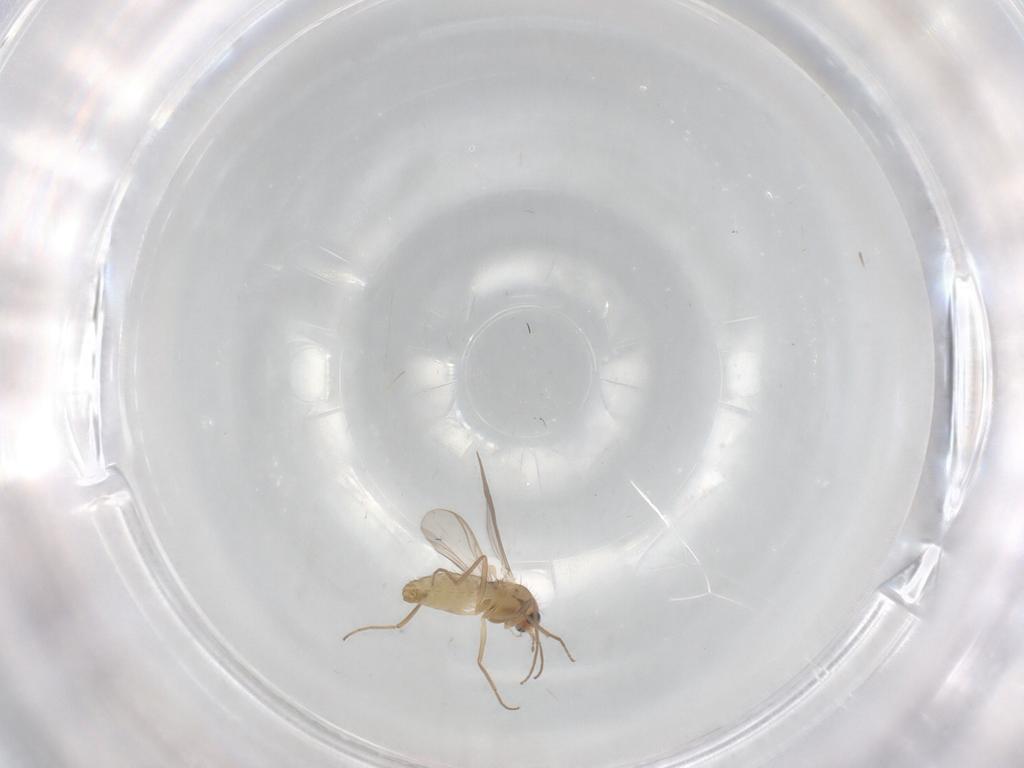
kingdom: Animalia
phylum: Arthropoda
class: Insecta
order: Diptera
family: Chironomidae
